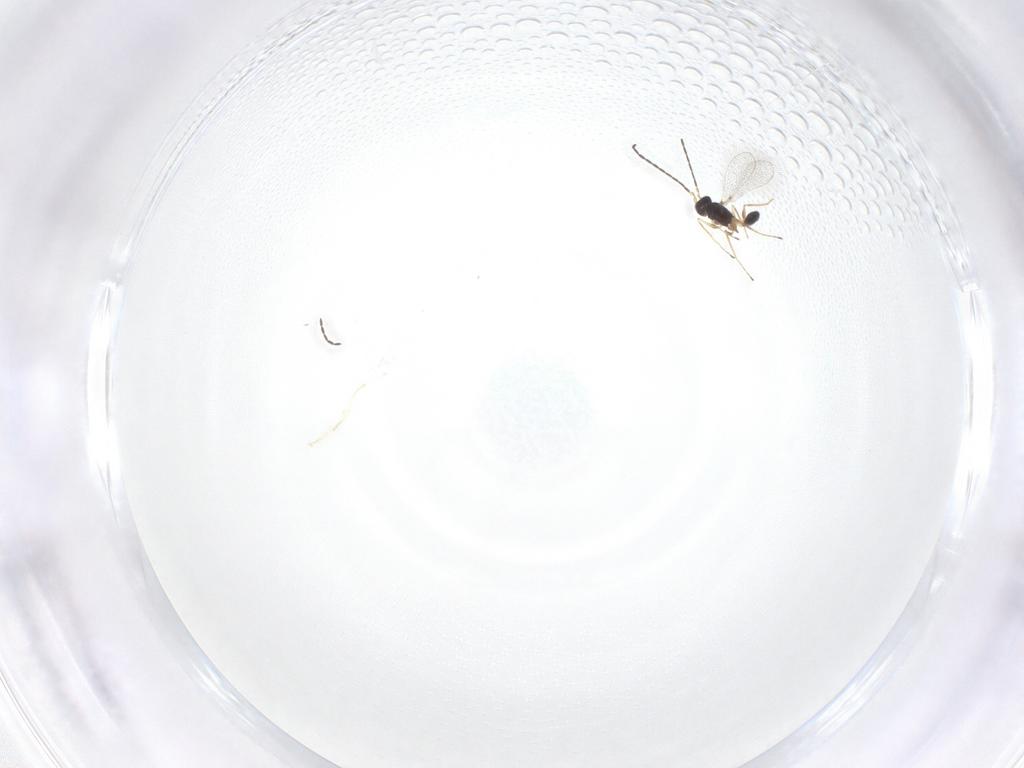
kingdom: Animalia
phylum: Arthropoda
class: Insecta
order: Hymenoptera
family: Mymaridae
